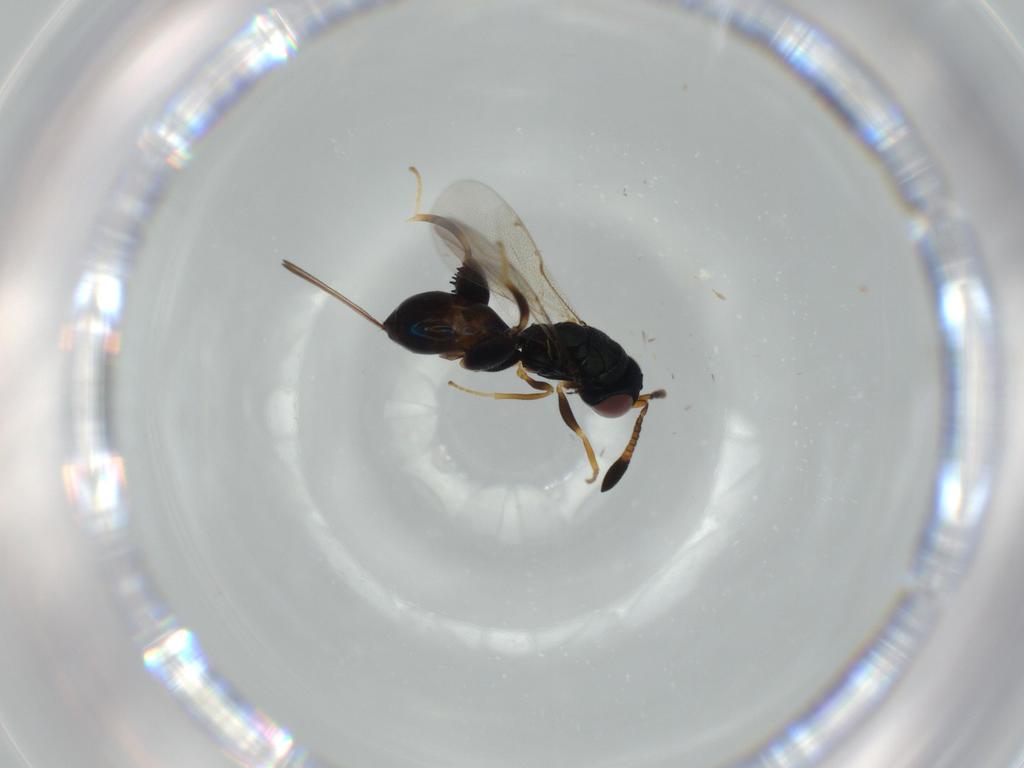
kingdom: Animalia
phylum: Arthropoda
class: Insecta
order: Hymenoptera
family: Torymidae
